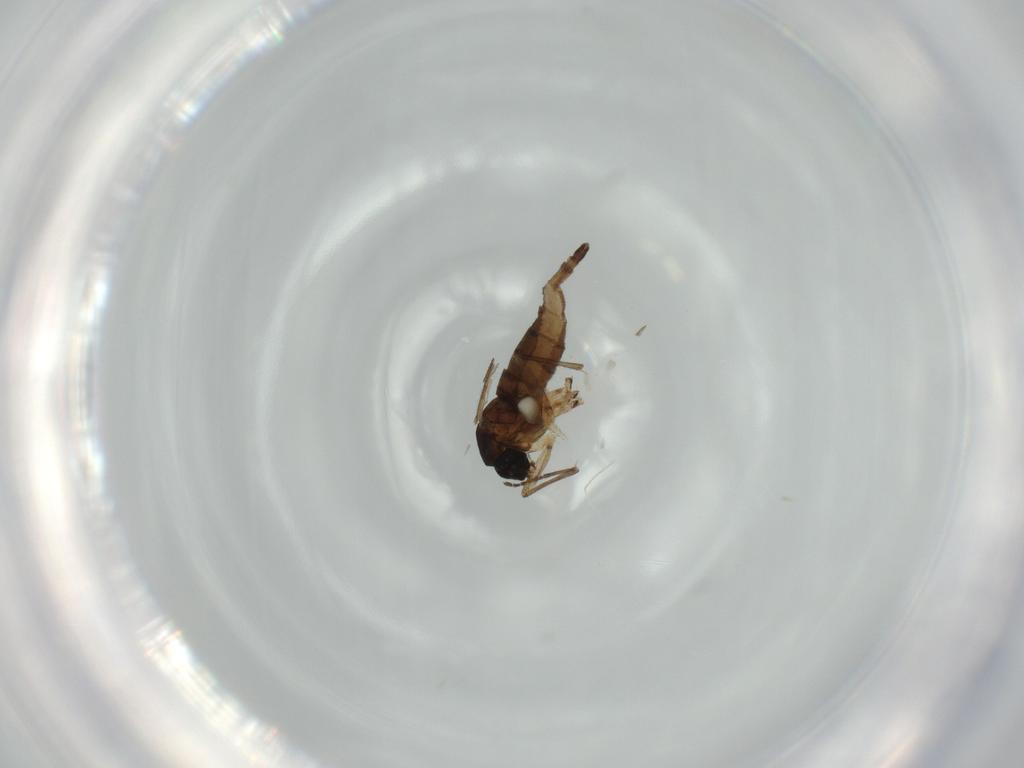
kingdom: Animalia
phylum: Arthropoda
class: Insecta
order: Diptera
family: Sciaridae
